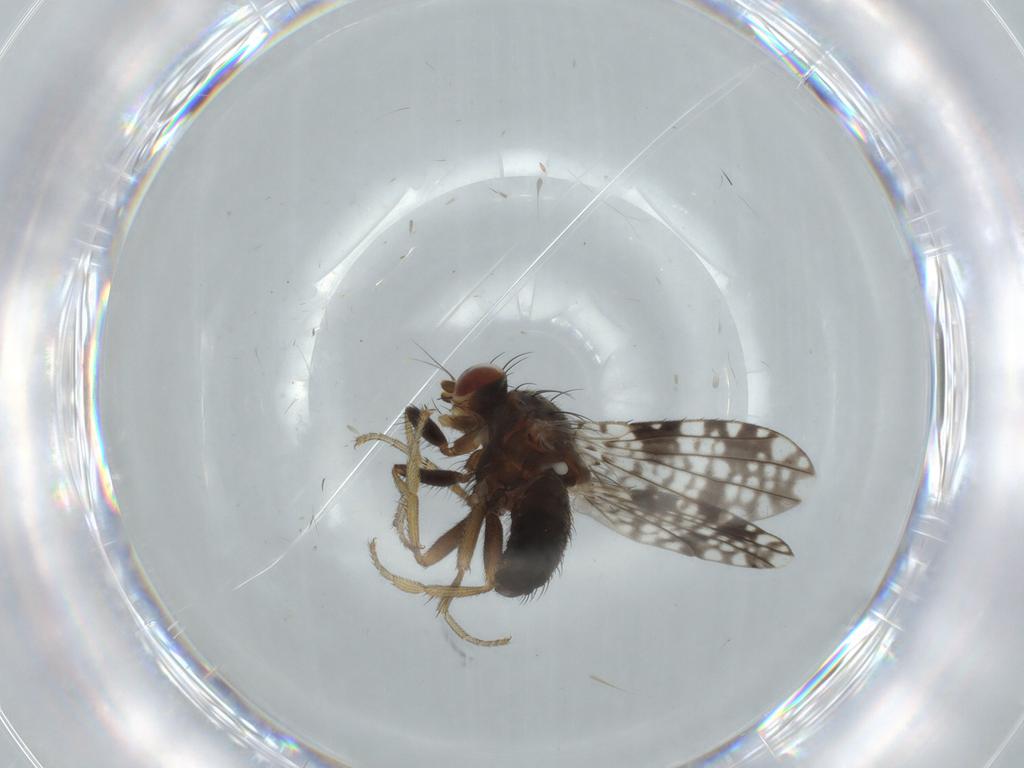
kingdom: Animalia
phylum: Arthropoda
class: Insecta
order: Diptera
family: Tephritidae
